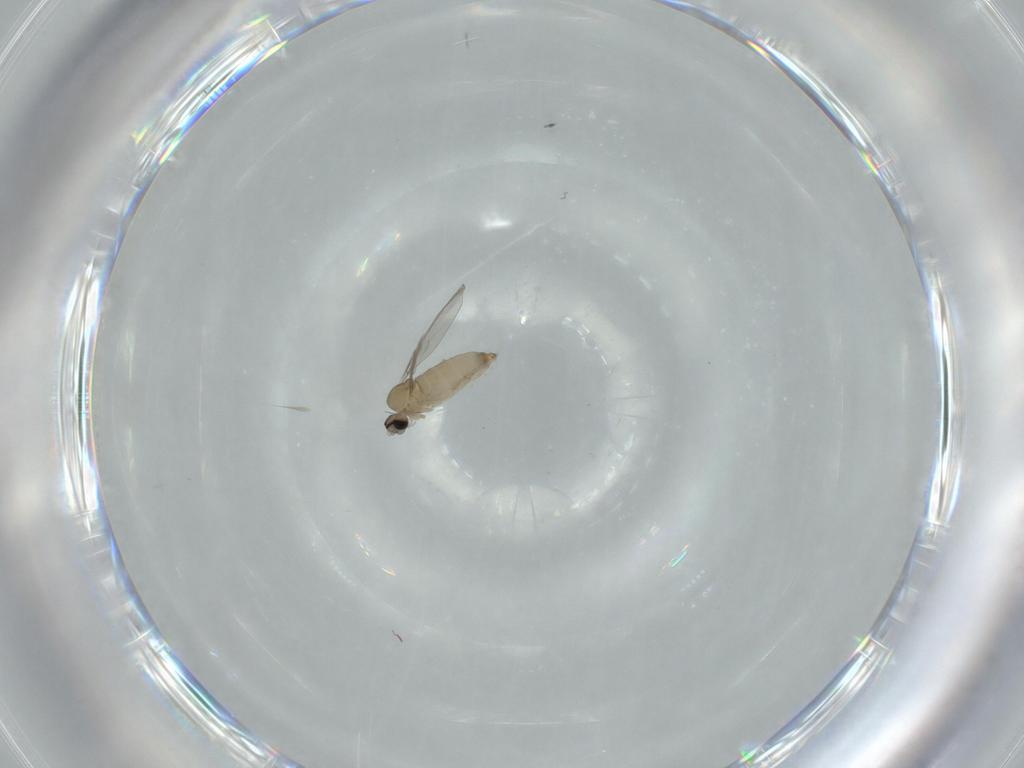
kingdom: Animalia
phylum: Arthropoda
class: Insecta
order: Diptera
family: Cecidomyiidae
